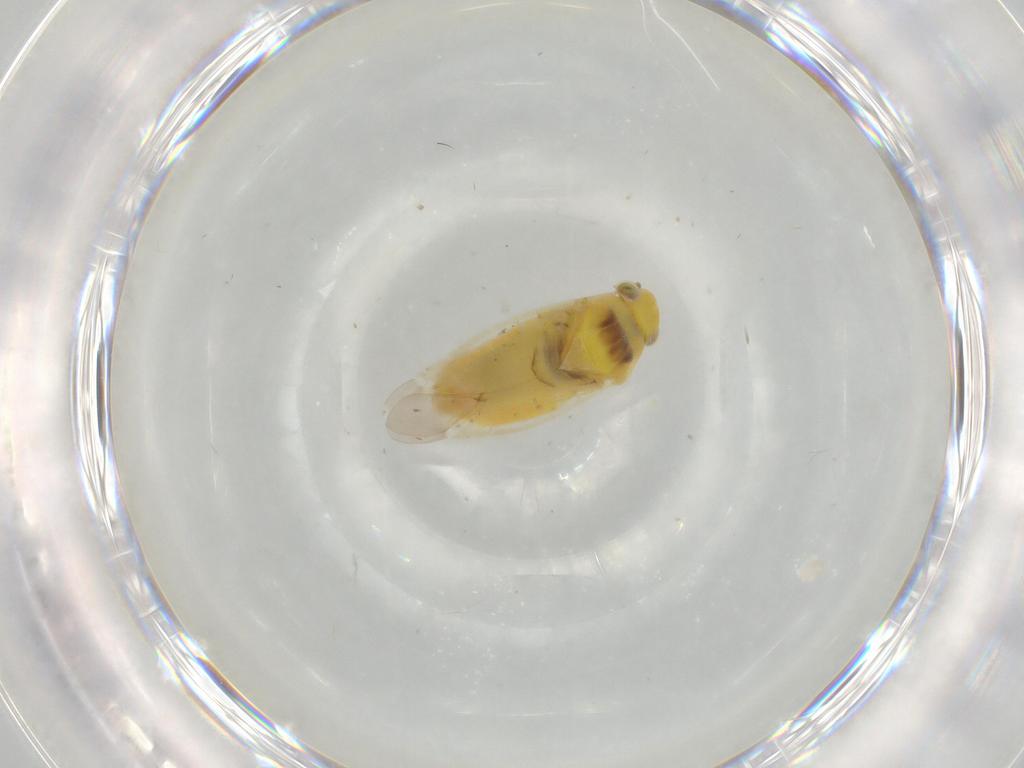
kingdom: Animalia
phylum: Arthropoda
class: Insecta
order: Hemiptera
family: Miridae
